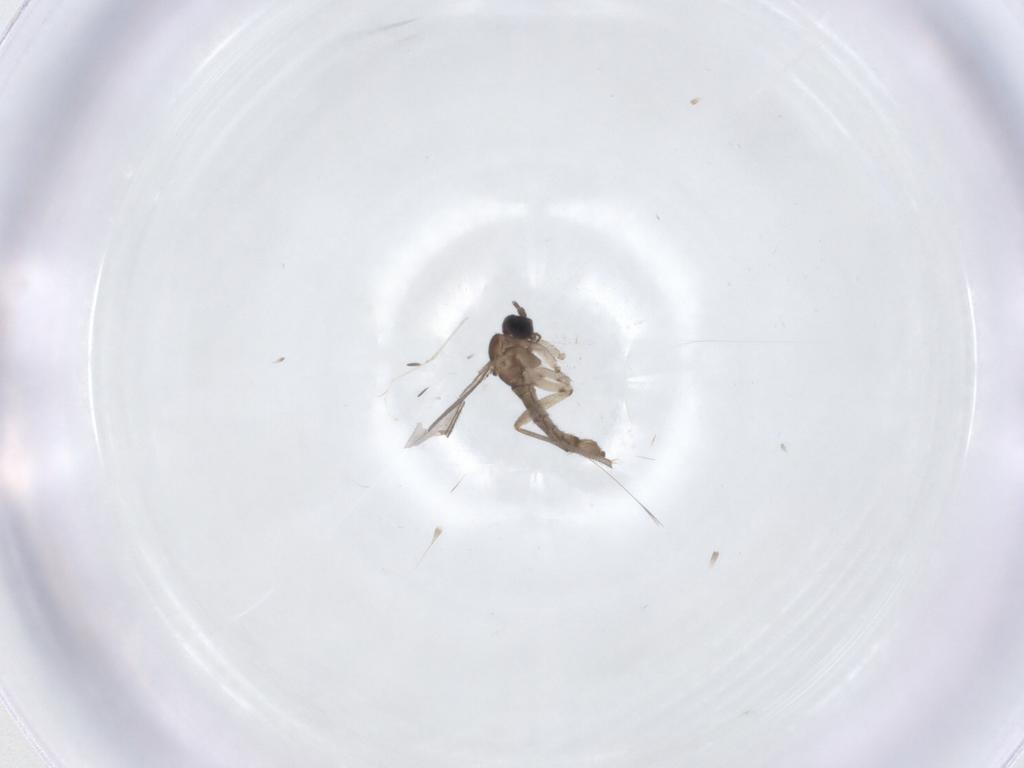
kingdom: Animalia
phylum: Arthropoda
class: Insecta
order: Diptera
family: Sciaridae
